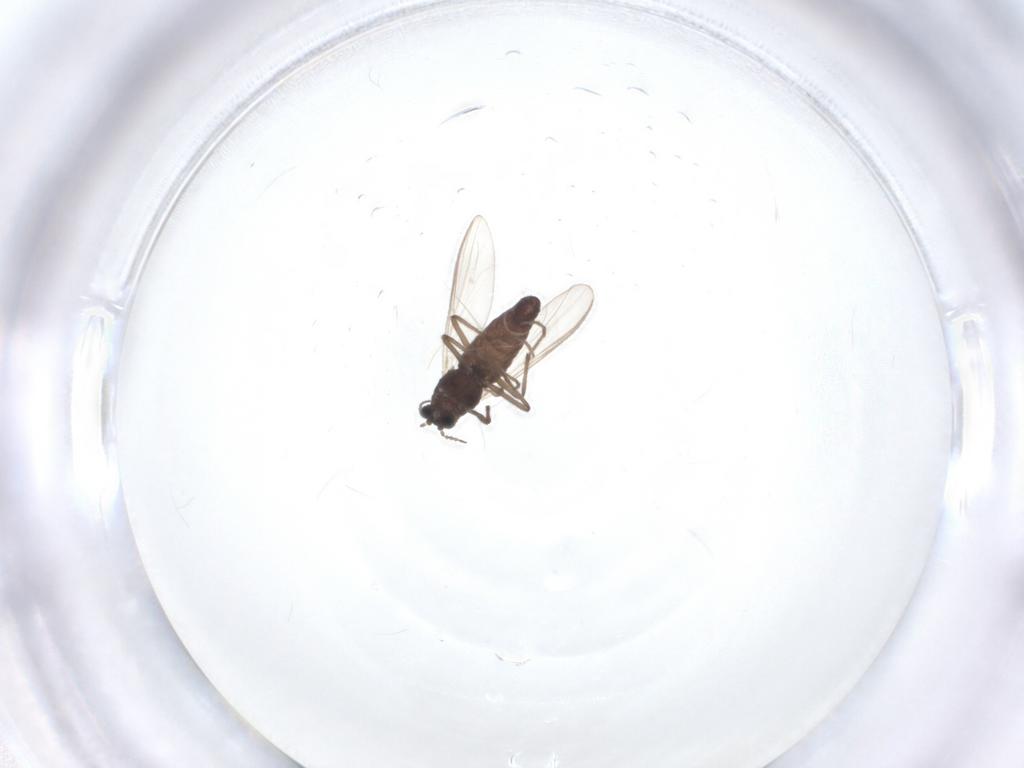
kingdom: Animalia
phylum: Arthropoda
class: Insecta
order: Diptera
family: Chironomidae
